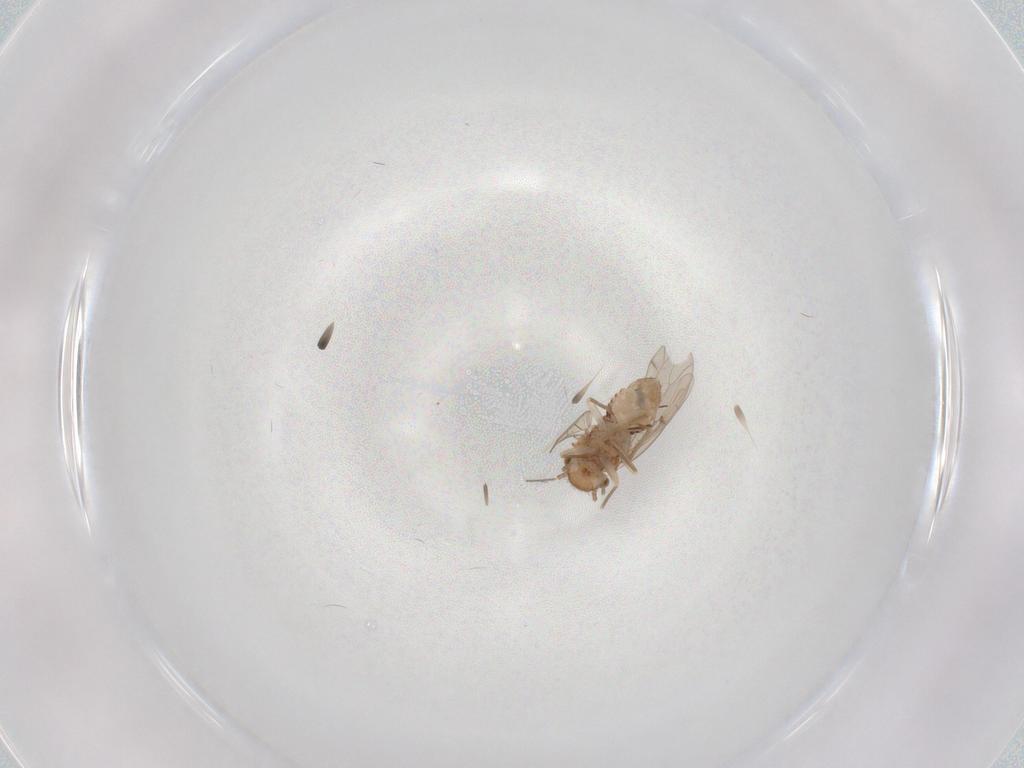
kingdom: Animalia
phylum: Arthropoda
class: Insecta
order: Psocodea
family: Ectopsocidae
